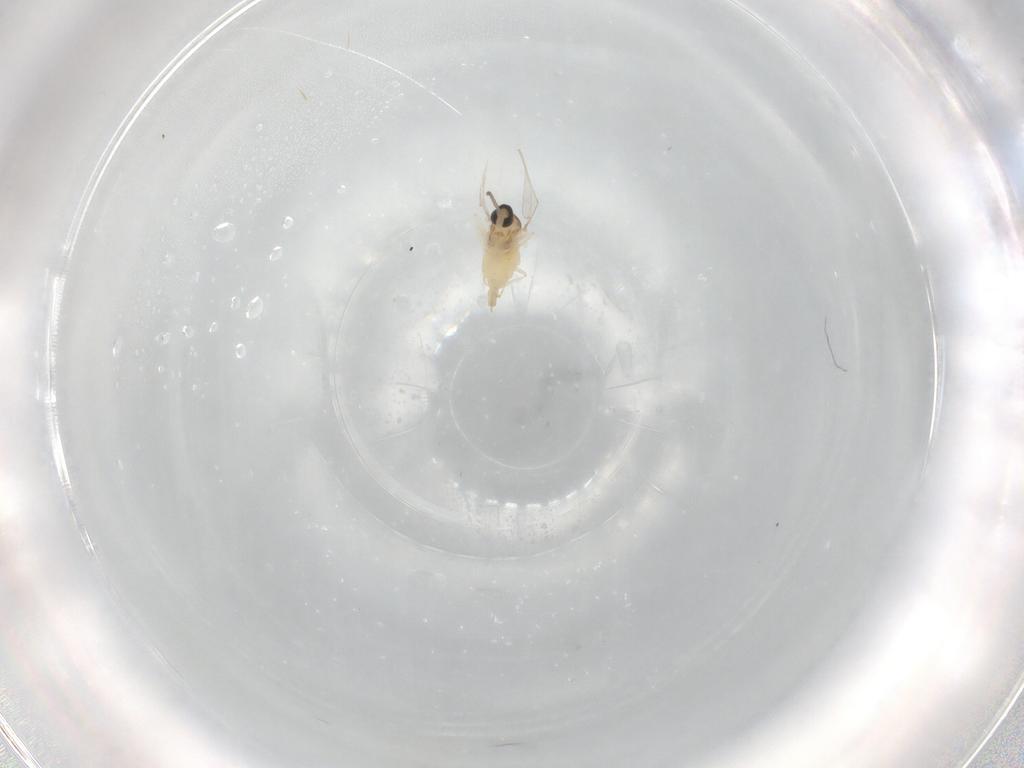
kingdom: Animalia
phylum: Arthropoda
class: Insecta
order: Diptera
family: Cecidomyiidae
